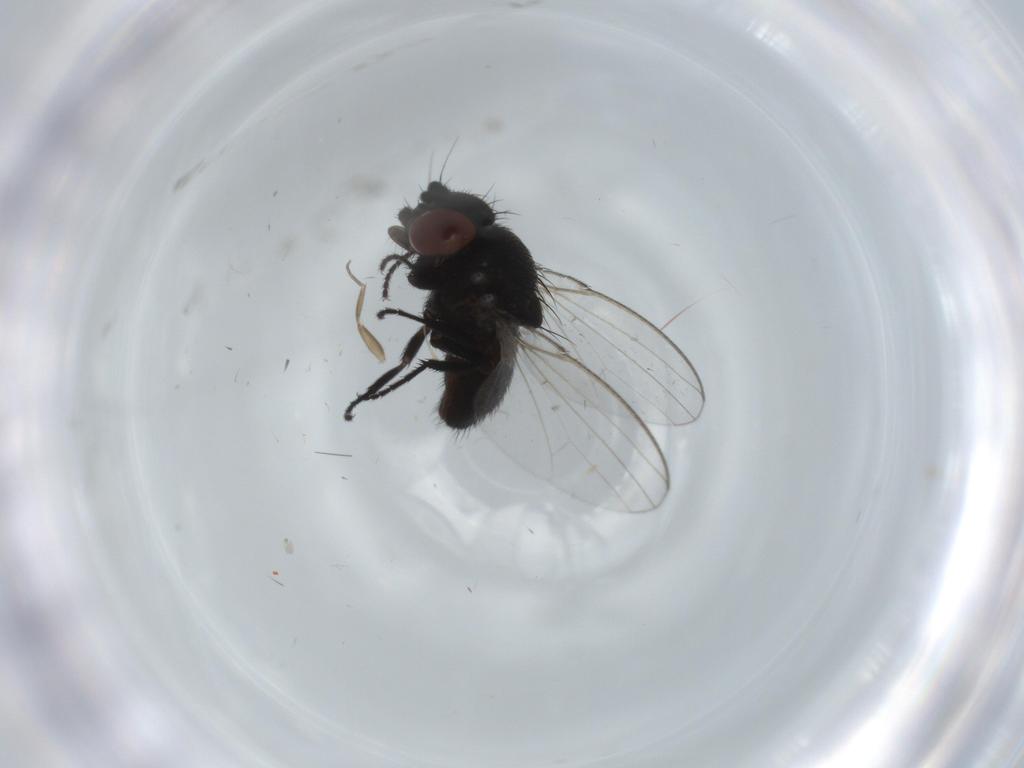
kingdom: Animalia
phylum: Arthropoda
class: Insecta
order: Diptera
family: Milichiidae
